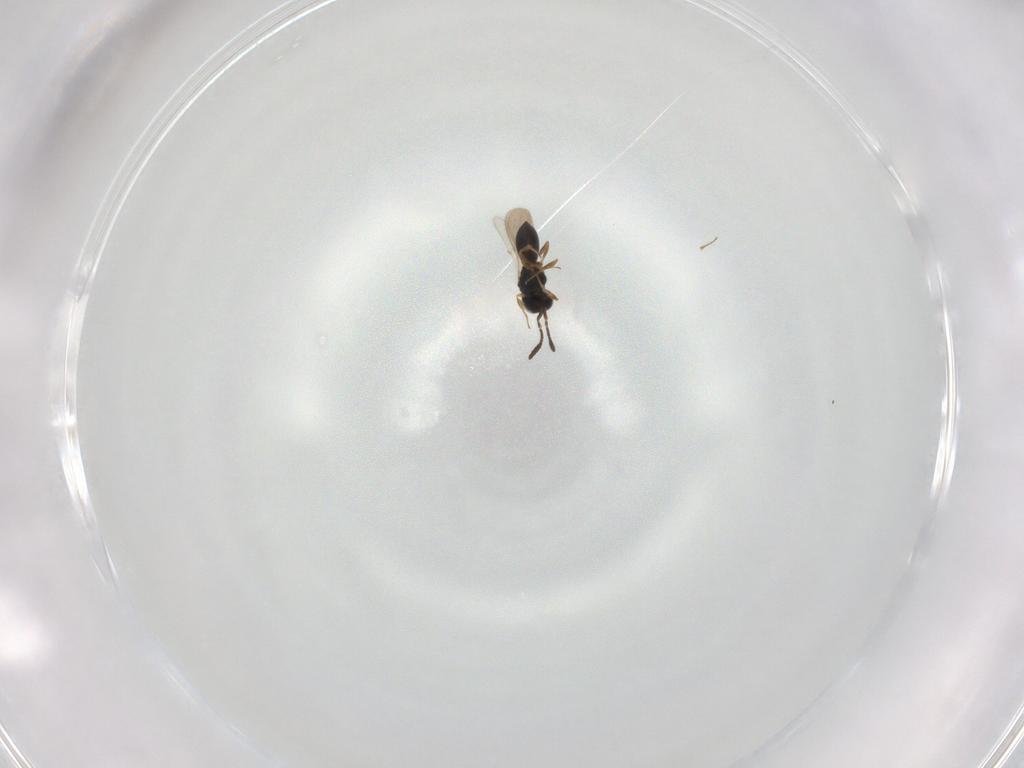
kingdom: Animalia
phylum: Arthropoda
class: Insecta
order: Hymenoptera
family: Scelionidae
